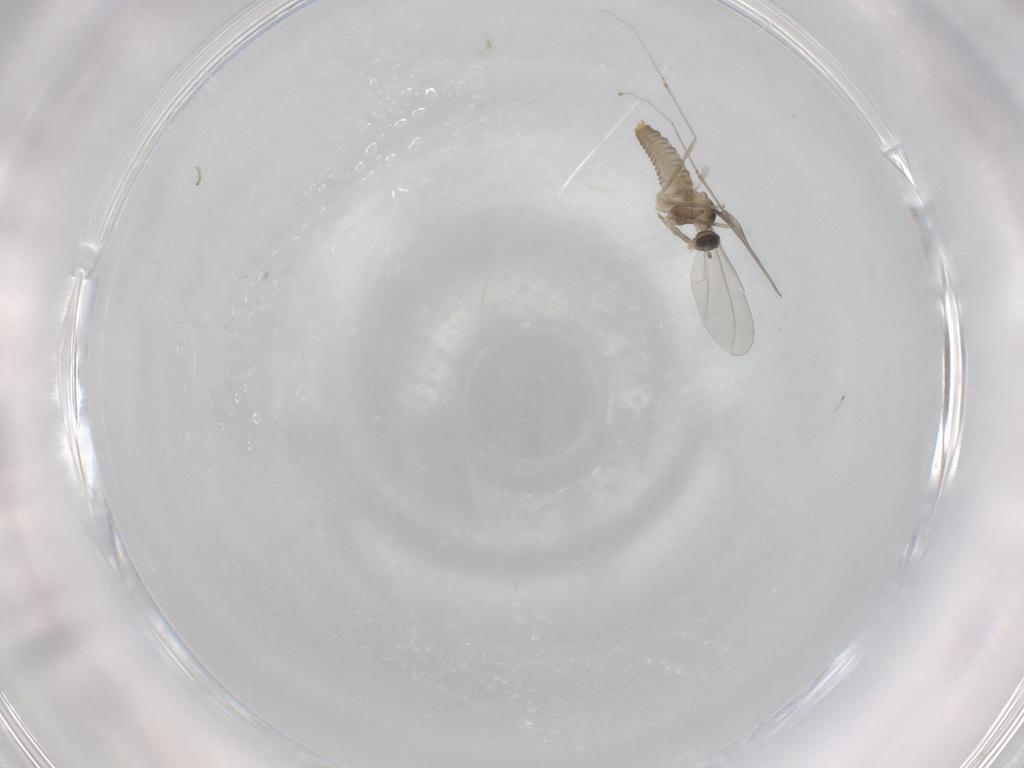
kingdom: Animalia
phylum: Arthropoda
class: Insecta
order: Diptera
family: Cecidomyiidae
